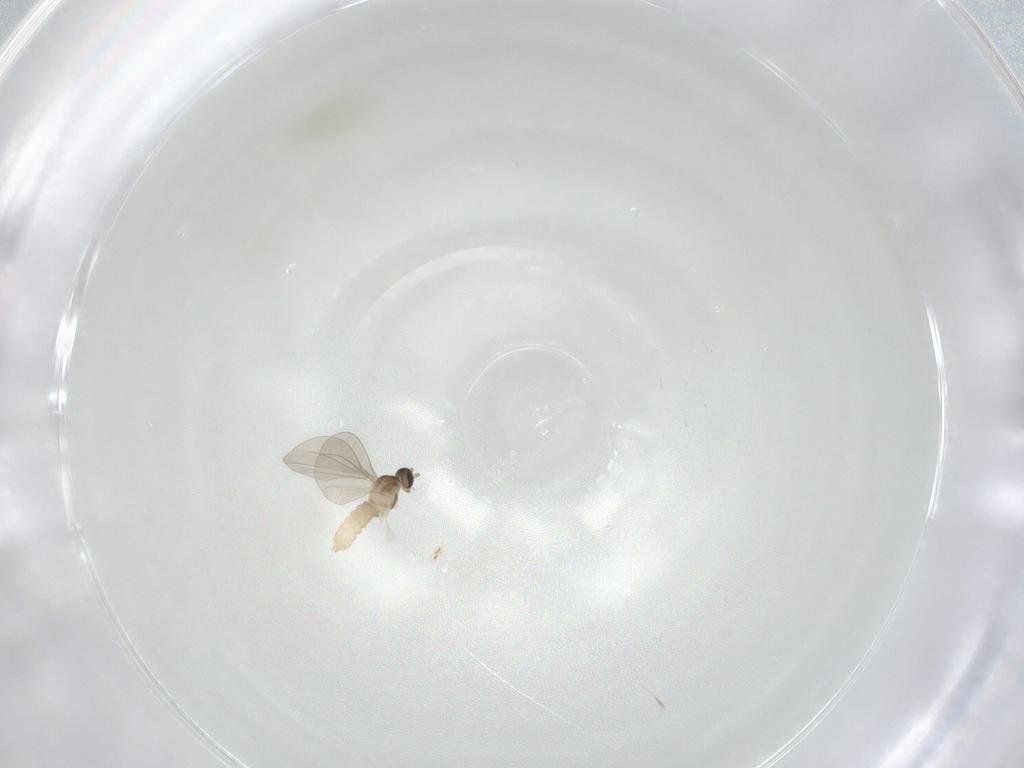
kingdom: Animalia
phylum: Arthropoda
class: Insecta
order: Diptera
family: Cecidomyiidae
